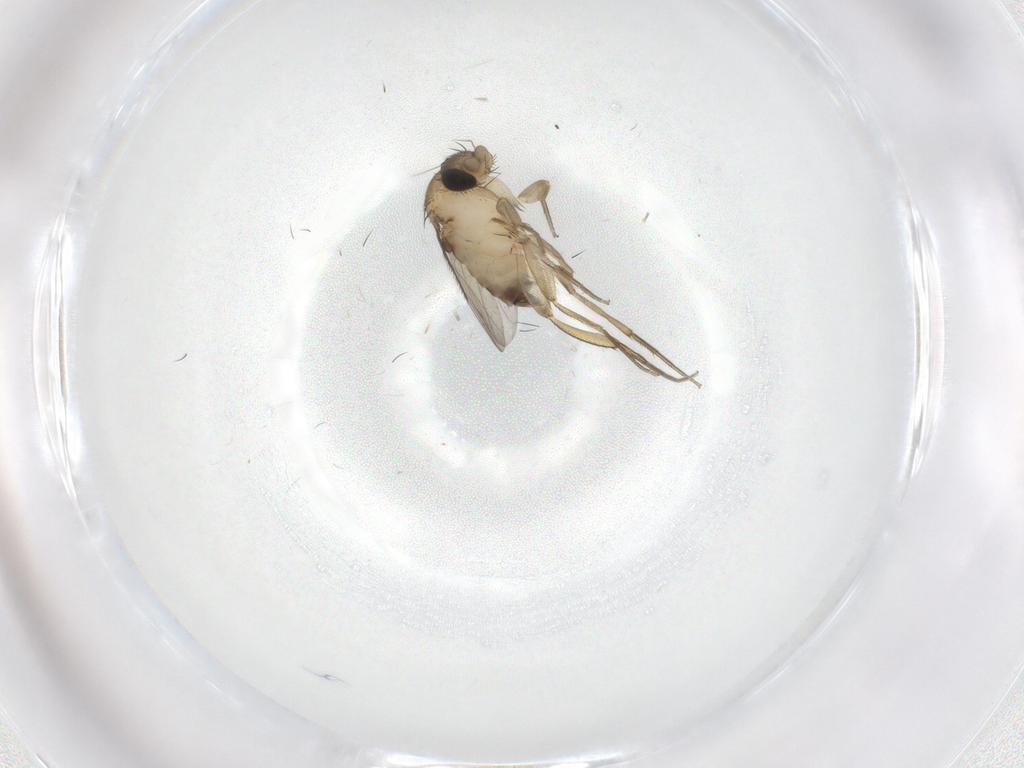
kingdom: Animalia
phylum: Arthropoda
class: Insecta
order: Diptera
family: Phoridae
